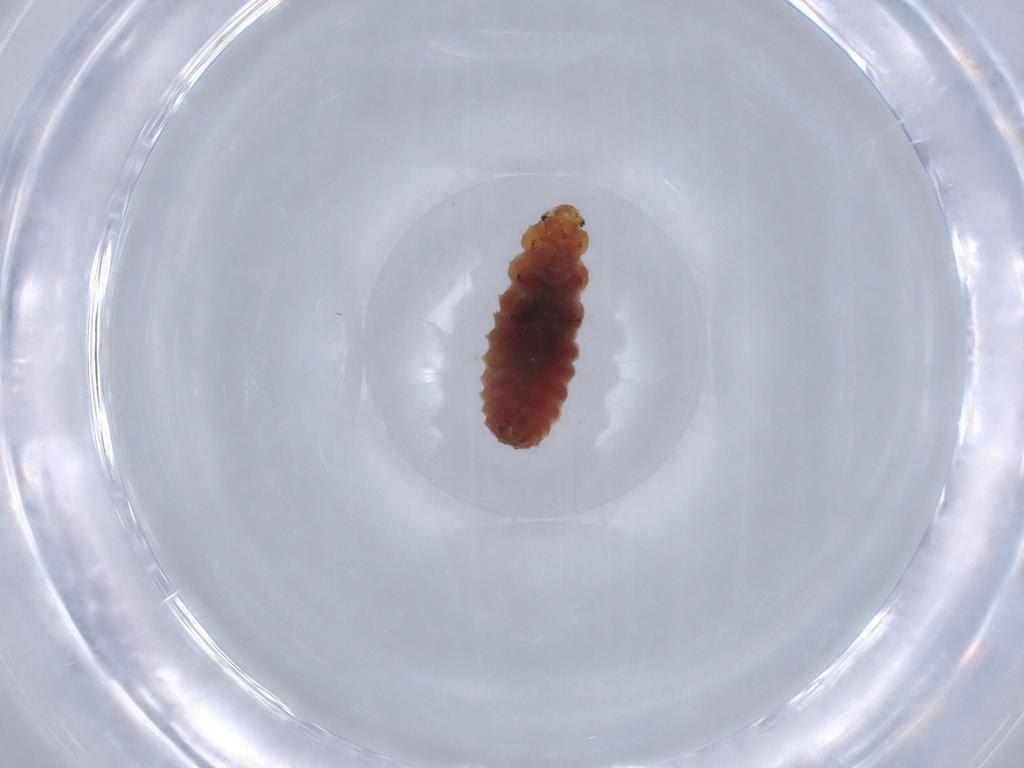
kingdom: Animalia
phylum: Arthropoda
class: Insecta
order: Coleoptera
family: Coccinellidae
